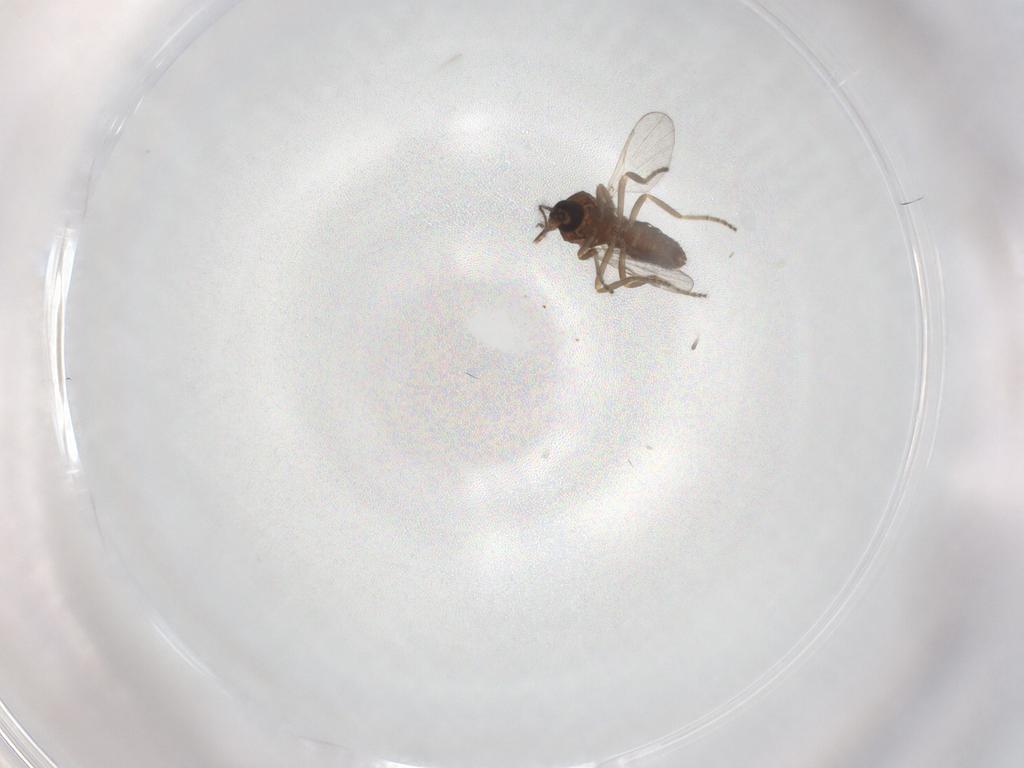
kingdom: Animalia
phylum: Arthropoda
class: Insecta
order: Diptera
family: Ceratopogonidae
